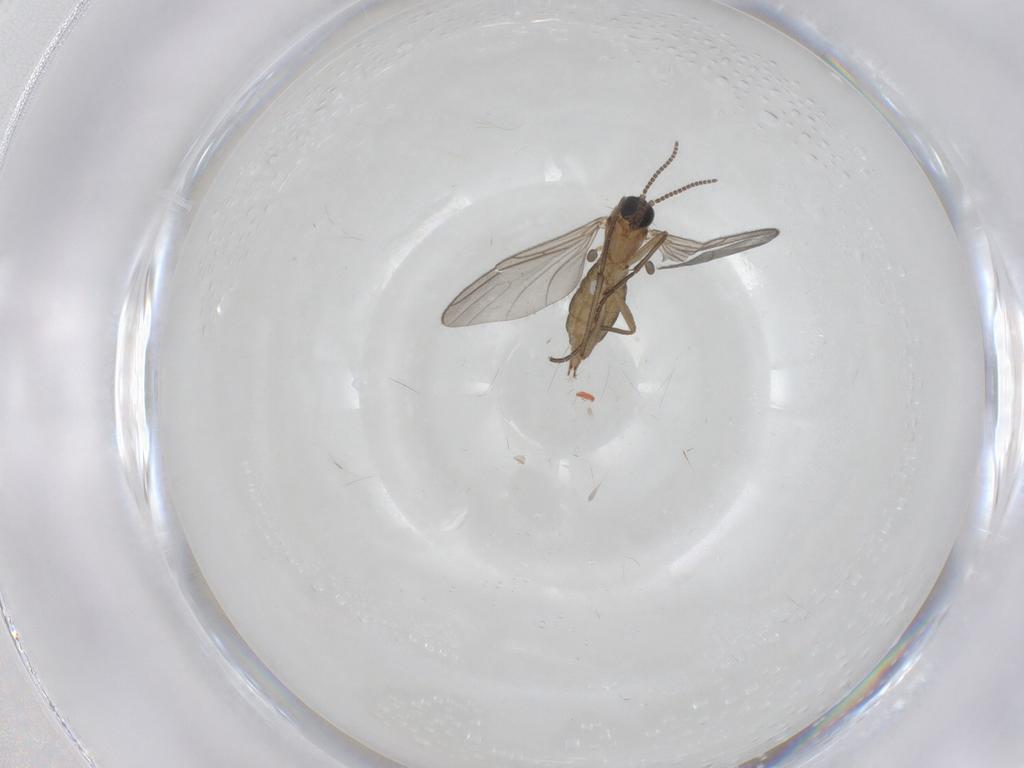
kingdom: Animalia
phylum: Arthropoda
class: Insecta
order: Diptera
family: Sciaridae
